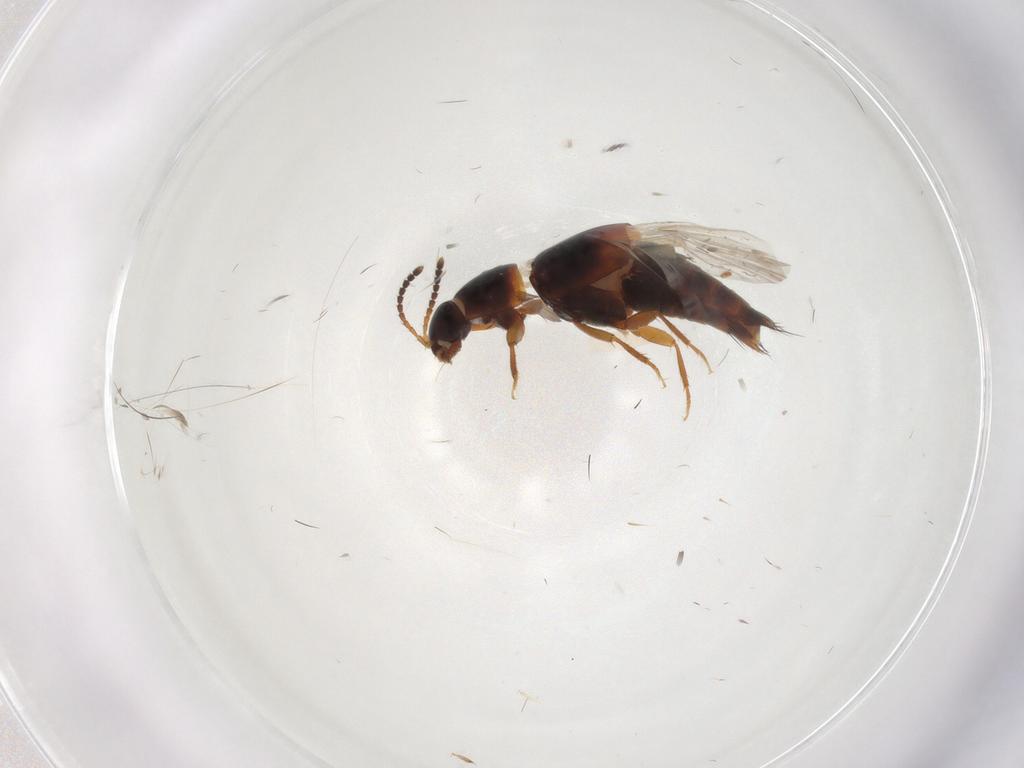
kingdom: Animalia
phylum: Arthropoda
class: Insecta
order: Coleoptera
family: Staphylinidae
